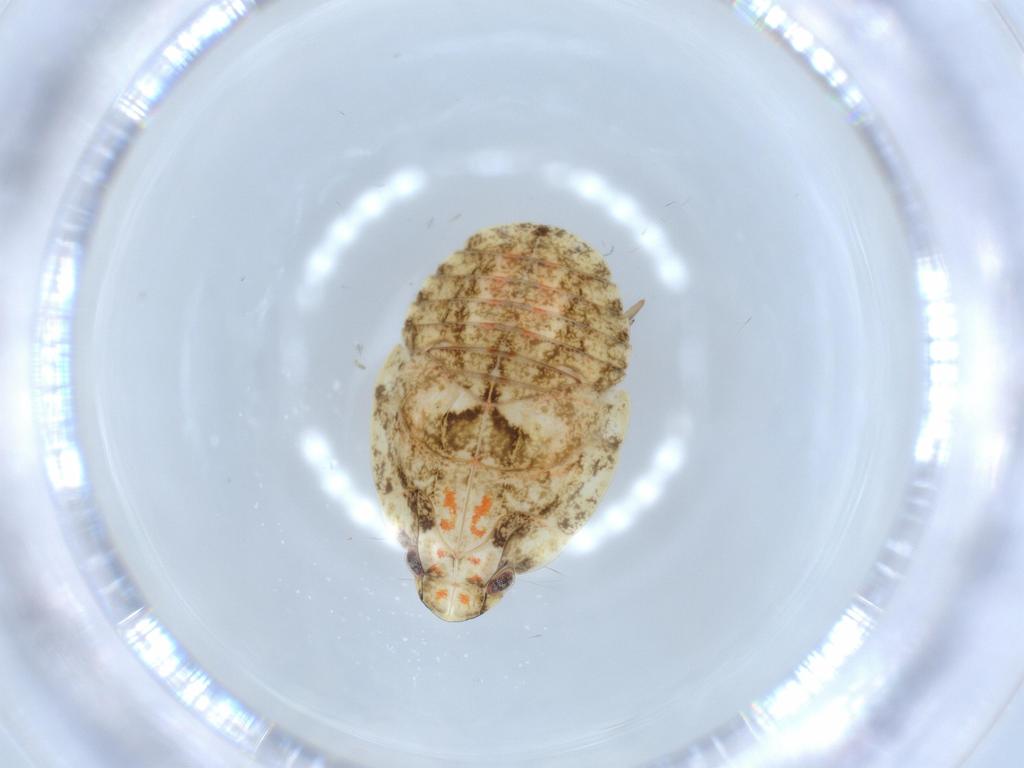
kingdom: Animalia
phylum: Arthropoda
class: Insecta
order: Hemiptera
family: Flatidae
